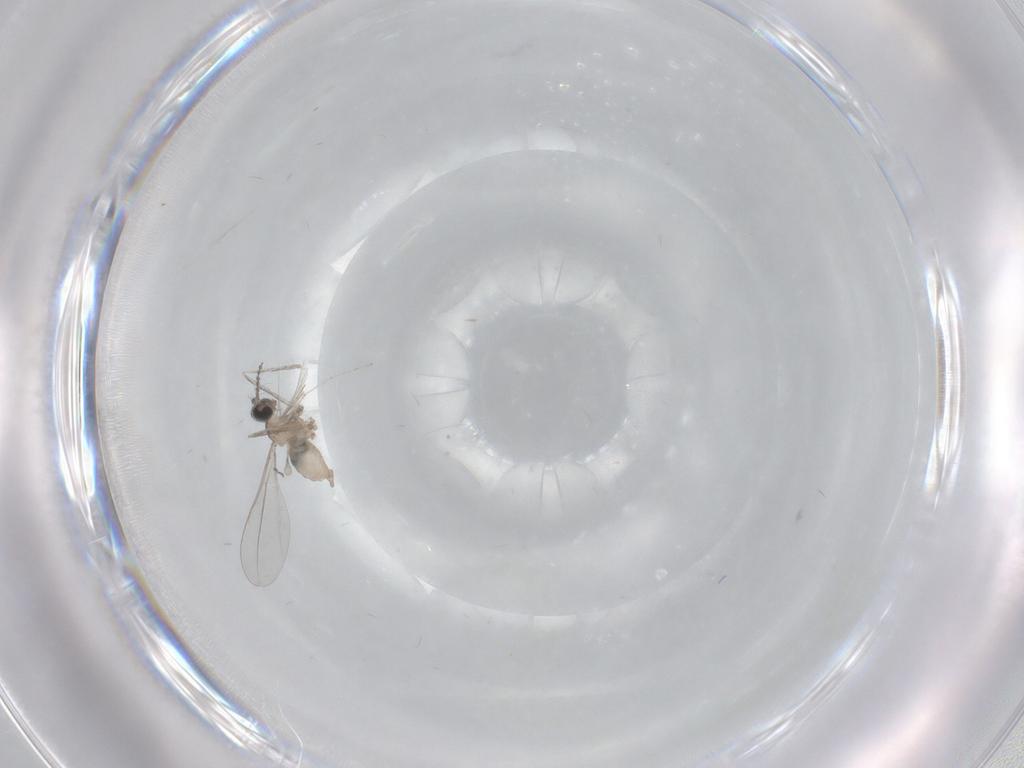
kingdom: Animalia
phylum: Arthropoda
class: Insecta
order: Diptera
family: Cecidomyiidae
